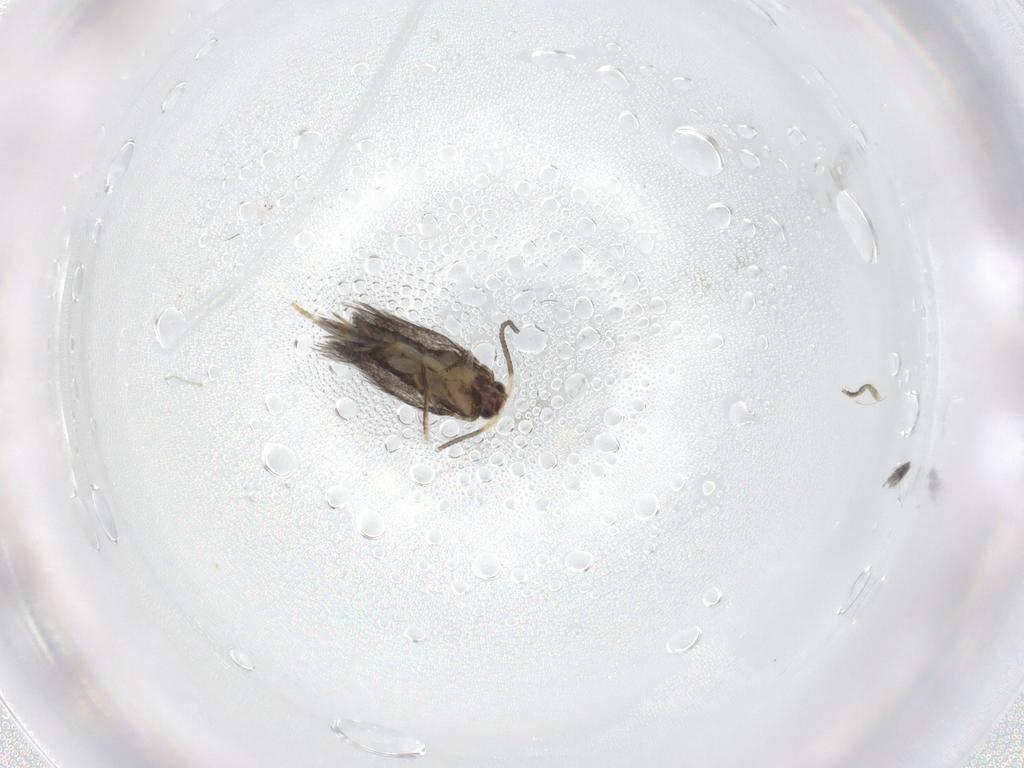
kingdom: Animalia
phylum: Arthropoda
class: Insecta
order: Lepidoptera
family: Nepticulidae
